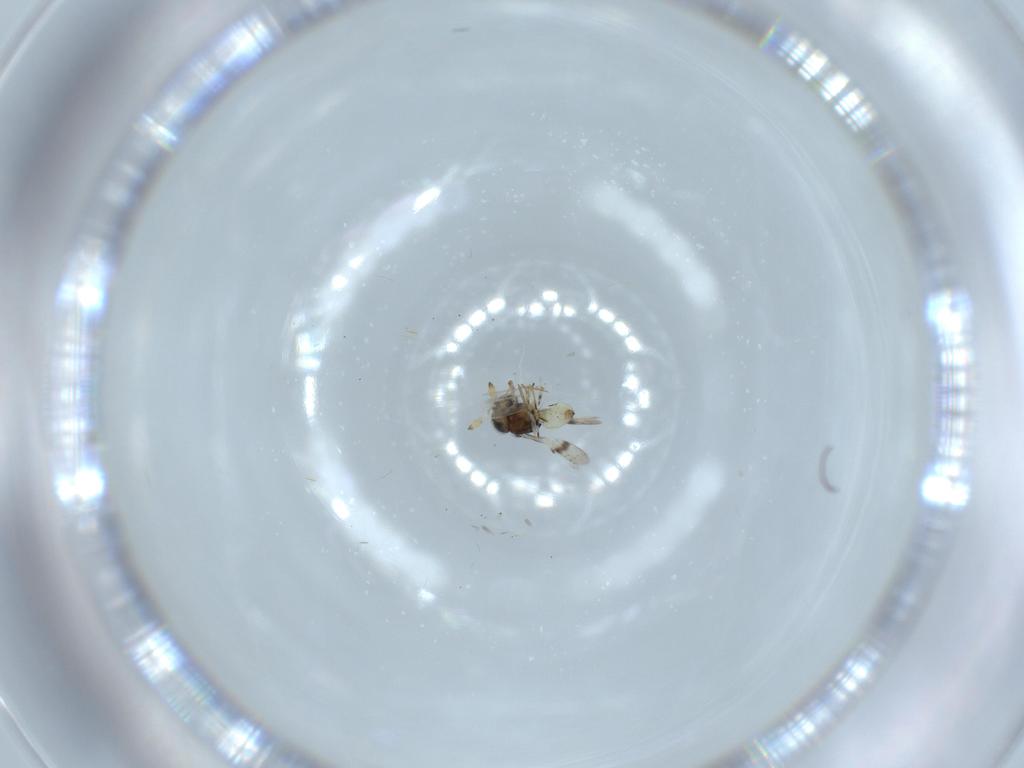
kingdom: Animalia
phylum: Arthropoda
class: Insecta
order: Hymenoptera
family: Scelionidae
